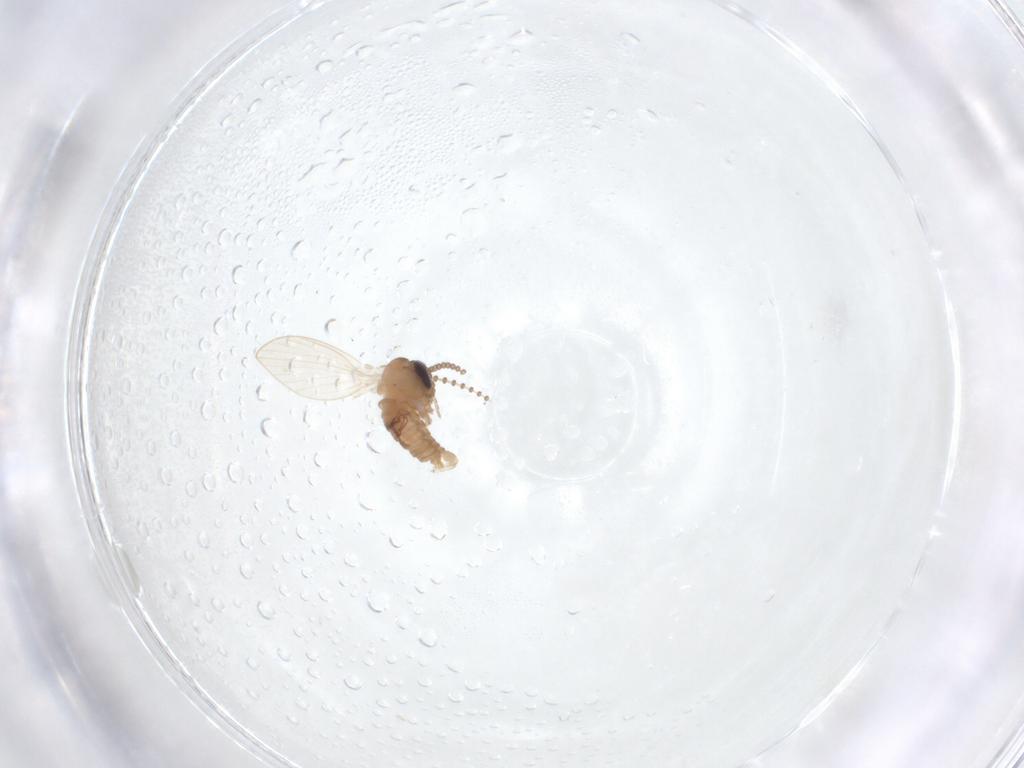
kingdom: Animalia
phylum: Arthropoda
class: Insecta
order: Diptera
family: Psychodidae
